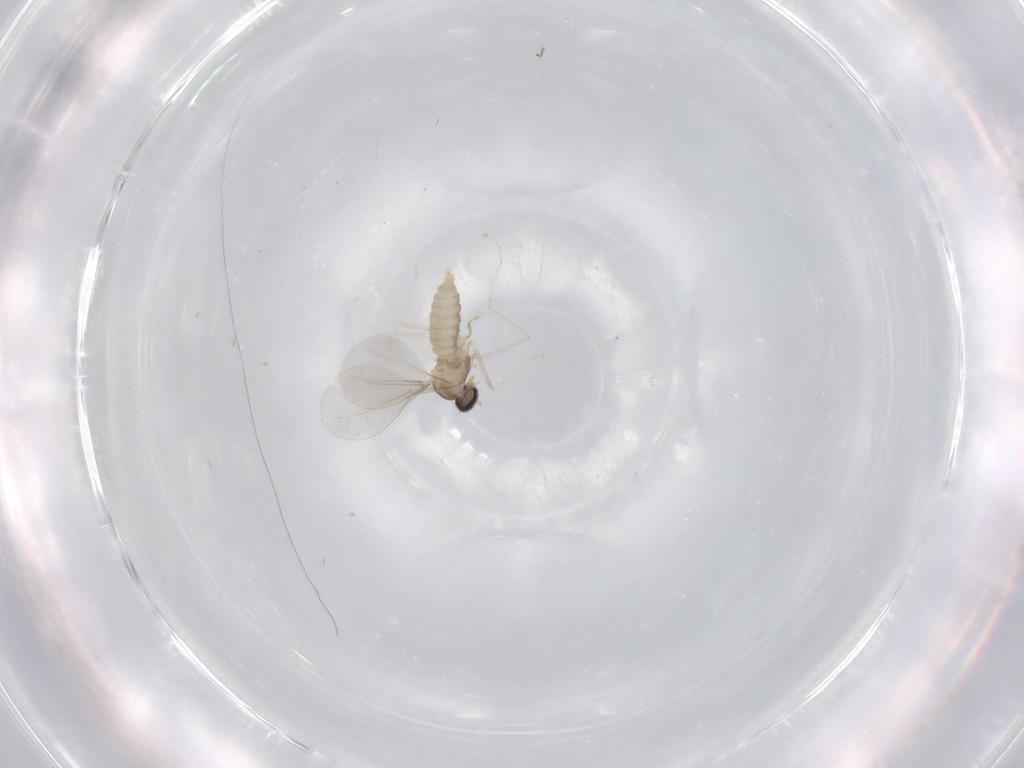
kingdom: Animalia
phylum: Arthropoda
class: Insecta
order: Diptera
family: Cecidomyiidae
